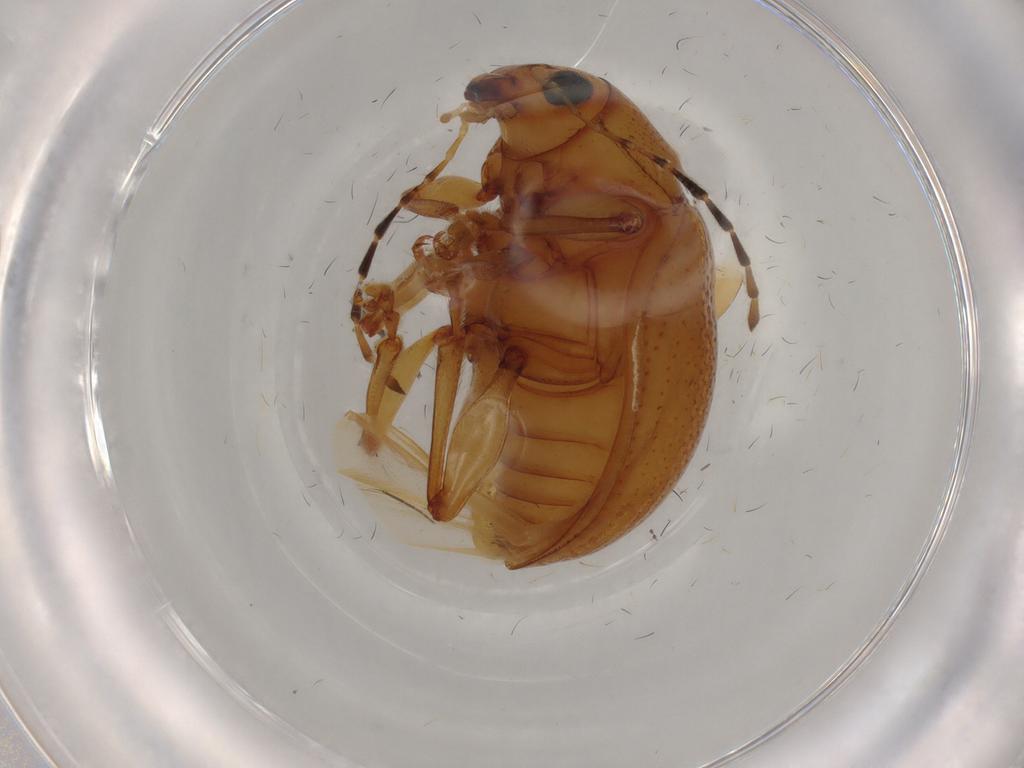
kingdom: Animalia
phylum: Arthropoda
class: Insecta
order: Coleoptera
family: Chrysomelidae
